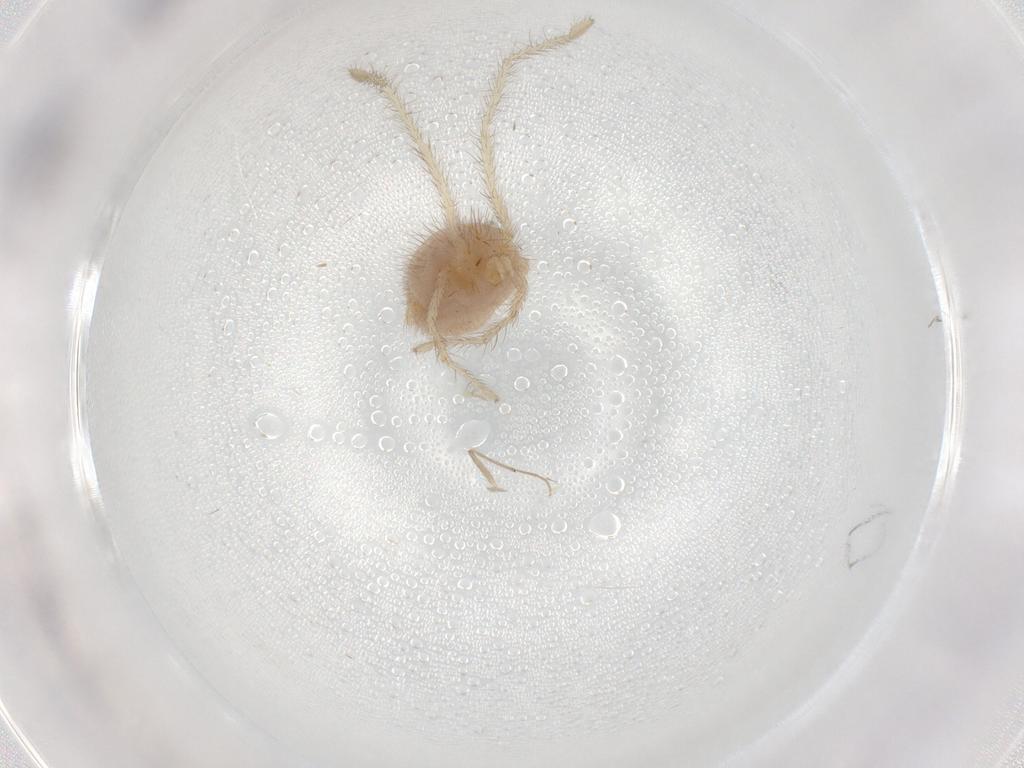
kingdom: Animalia
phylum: Arthropoda
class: Arachnida
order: Trombidiformes
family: Erythraeidae
